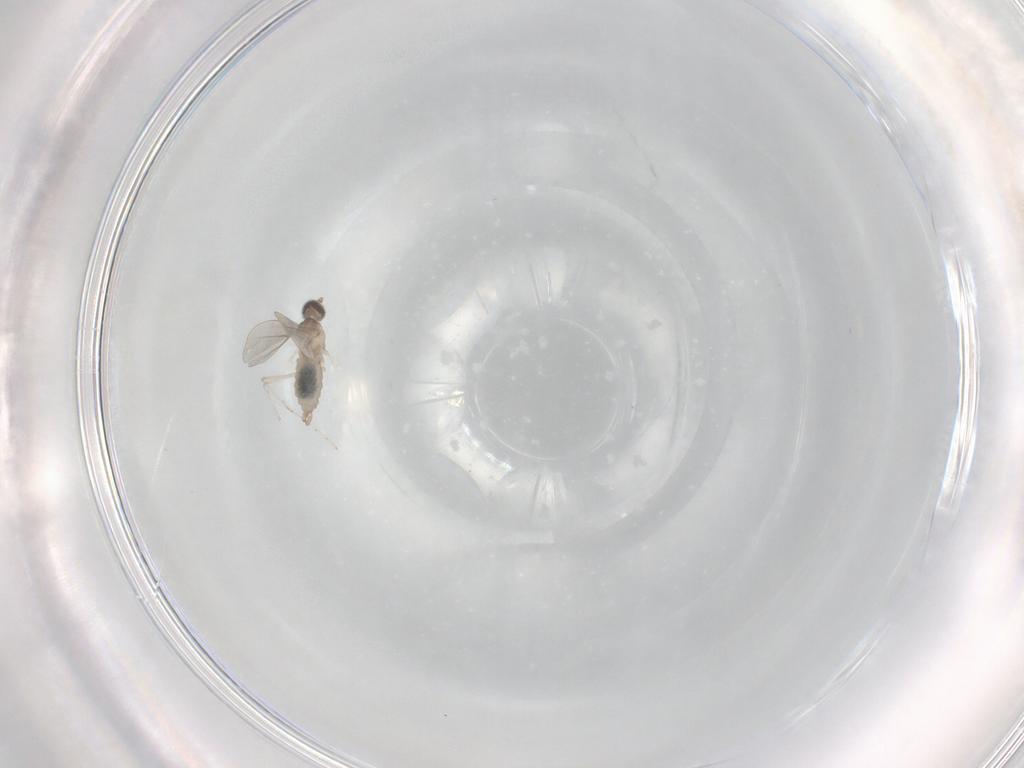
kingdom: Animalia
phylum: Arthropoda
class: Insecta
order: Diptera
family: Cecidomyiidae
